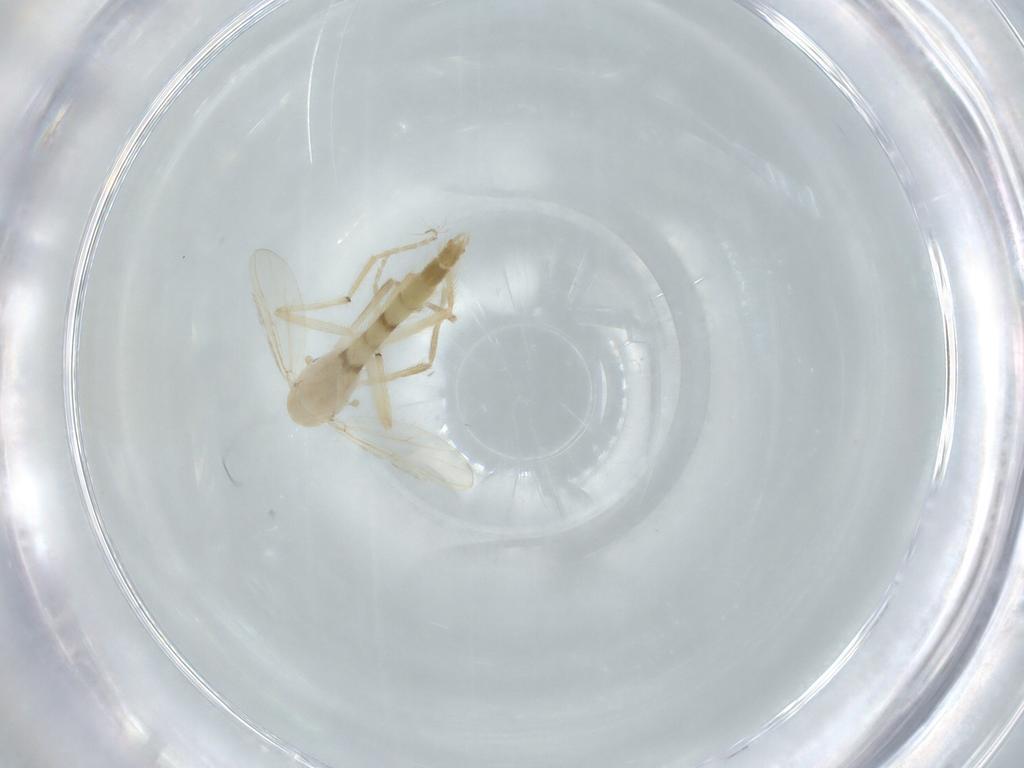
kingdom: Animalia
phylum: Arthropoda
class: Insecta
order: Diptera
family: Chironomidae
